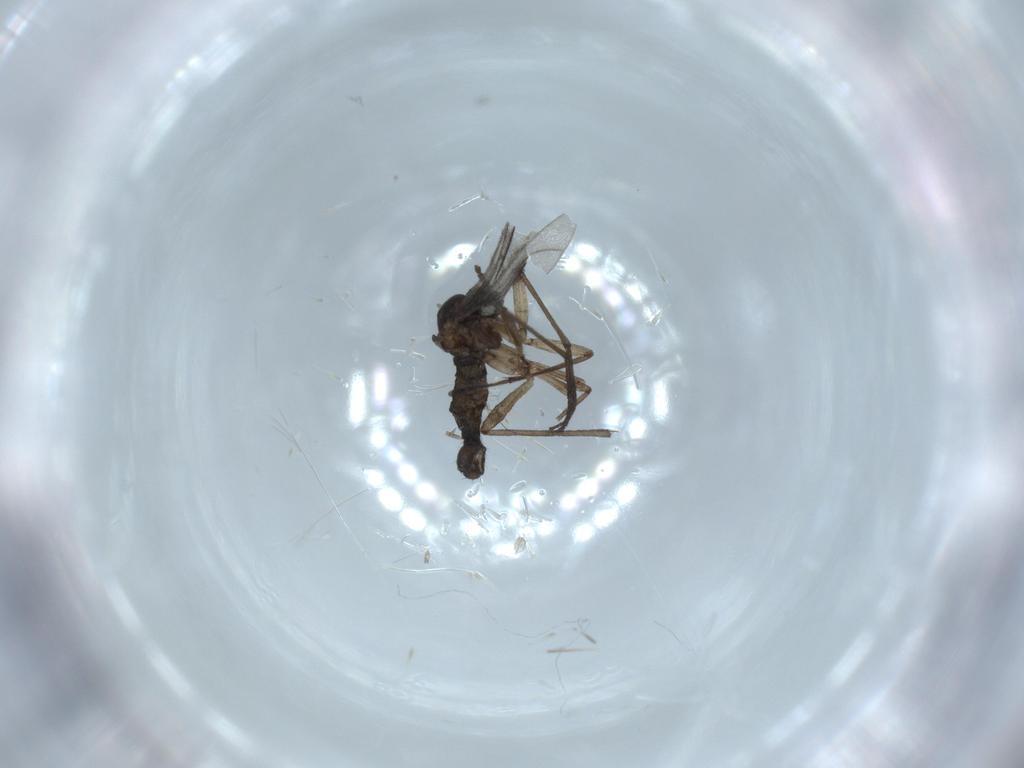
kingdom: Animalia
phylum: Arthropoda
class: Insecta
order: Diptera
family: Sciaridae
